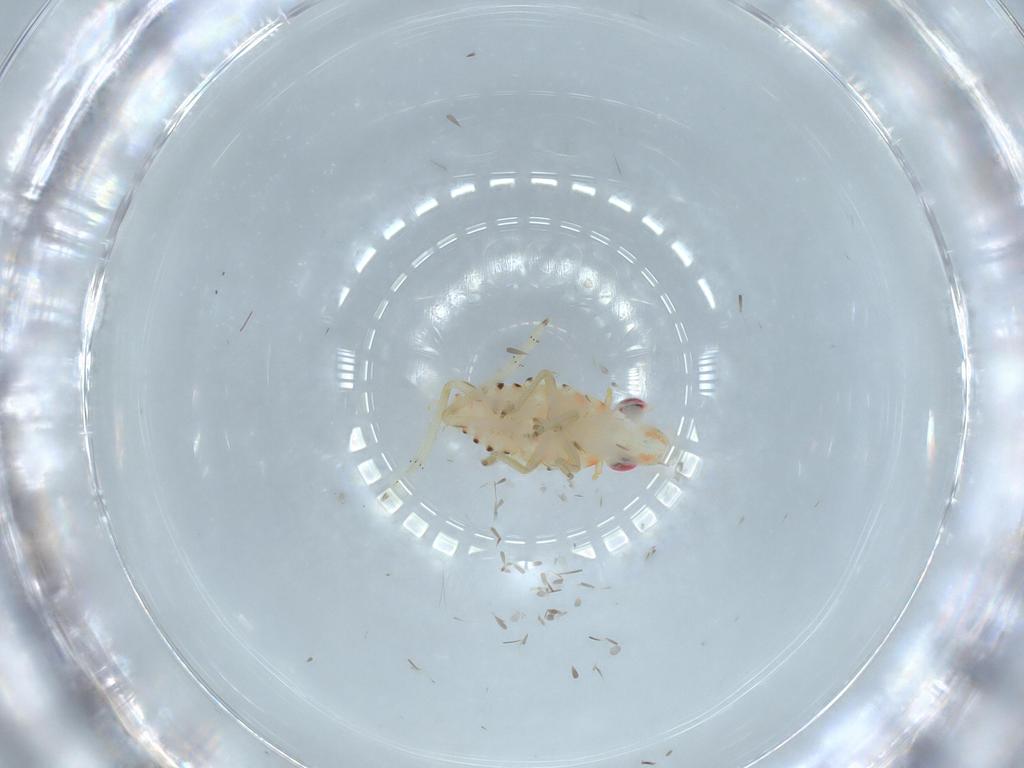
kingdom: Animalia
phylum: Arthropoda
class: Insecta
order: Hemiptera
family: Tropiduchidae
